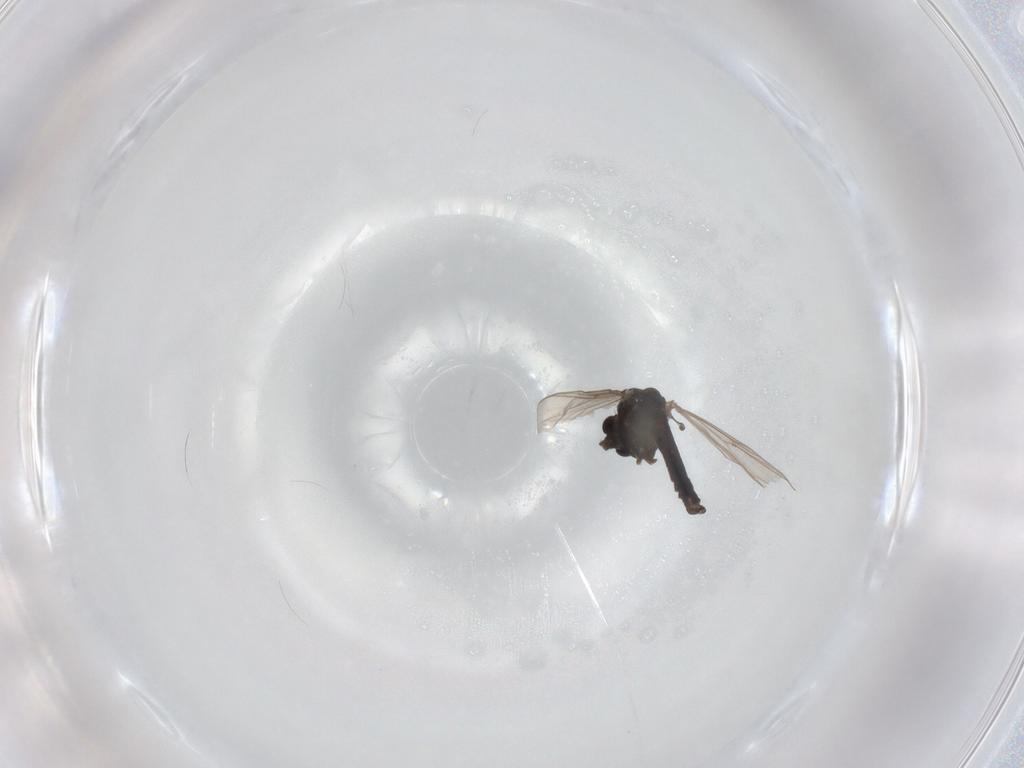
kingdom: Animalia
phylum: Arthropoda
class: Insecta
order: Diptera
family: Chironomidae
